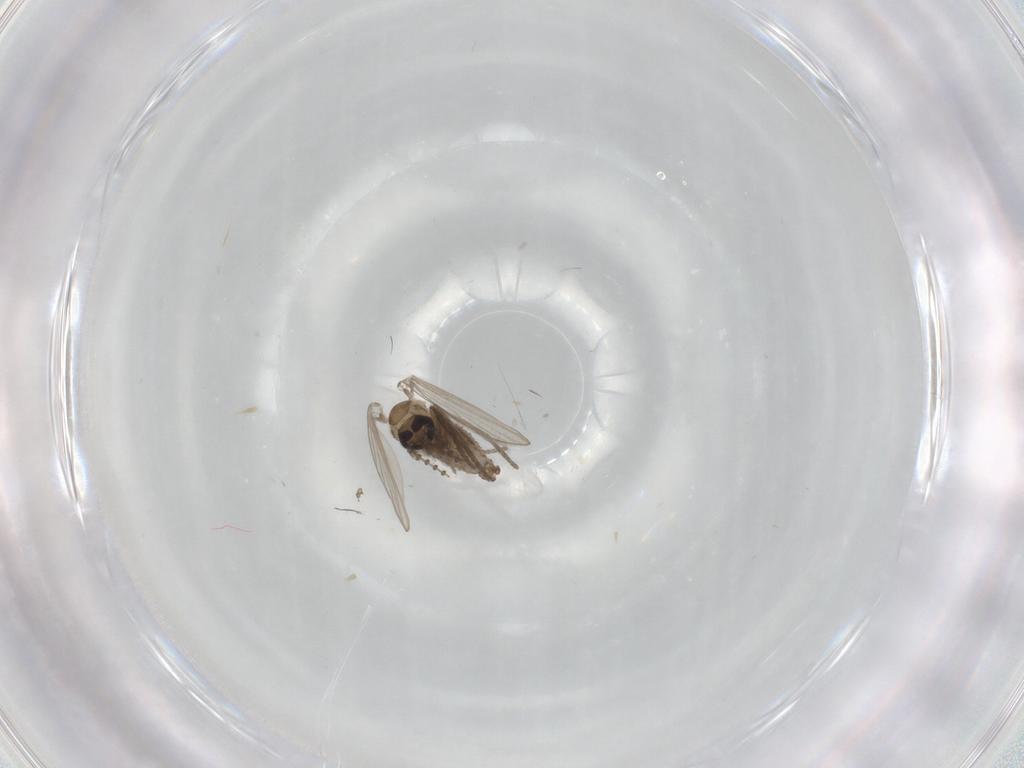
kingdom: Animalia
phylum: Arthropoda
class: Insecta
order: Diptera
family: Psychodidae
